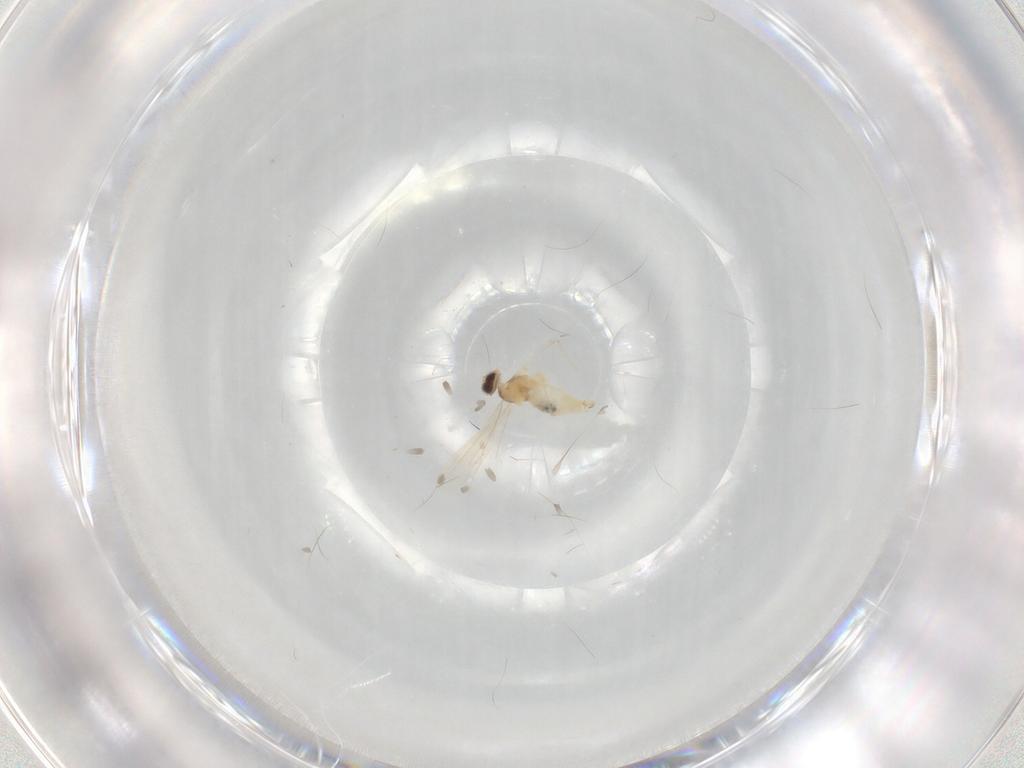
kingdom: Animalia
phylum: Arthropoda
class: Insecta
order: Diptera
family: Cecidomyiidae
